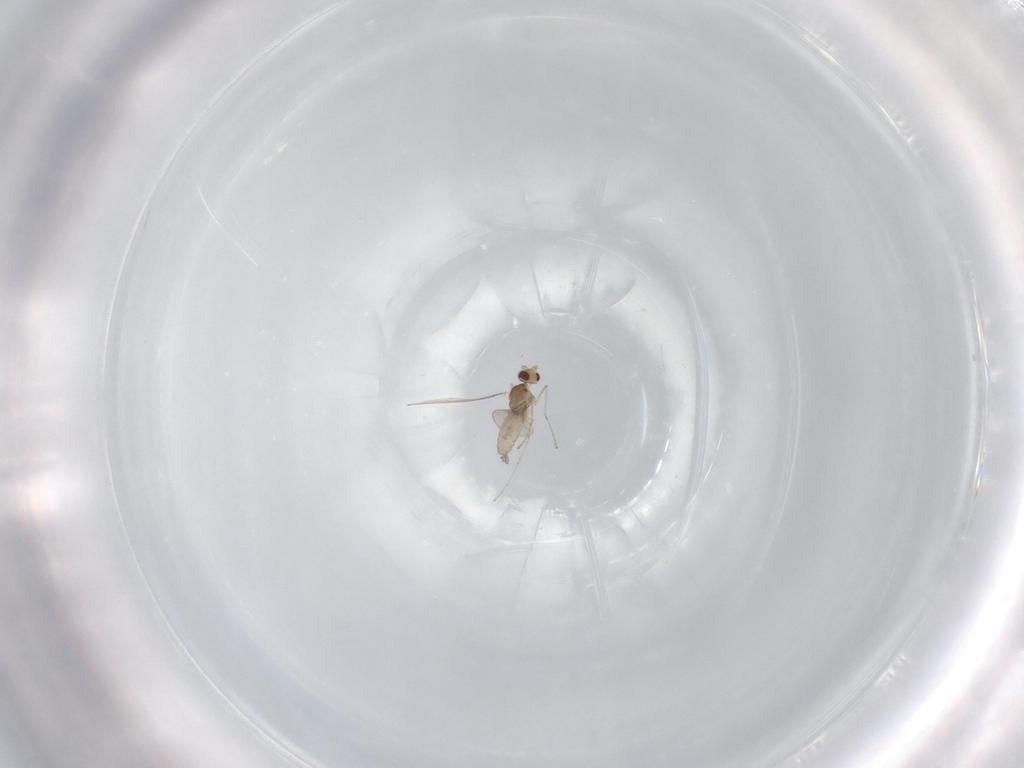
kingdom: Animalia
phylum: Arthropoda
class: Insecta
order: Diptera
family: Cecidomyiidae
